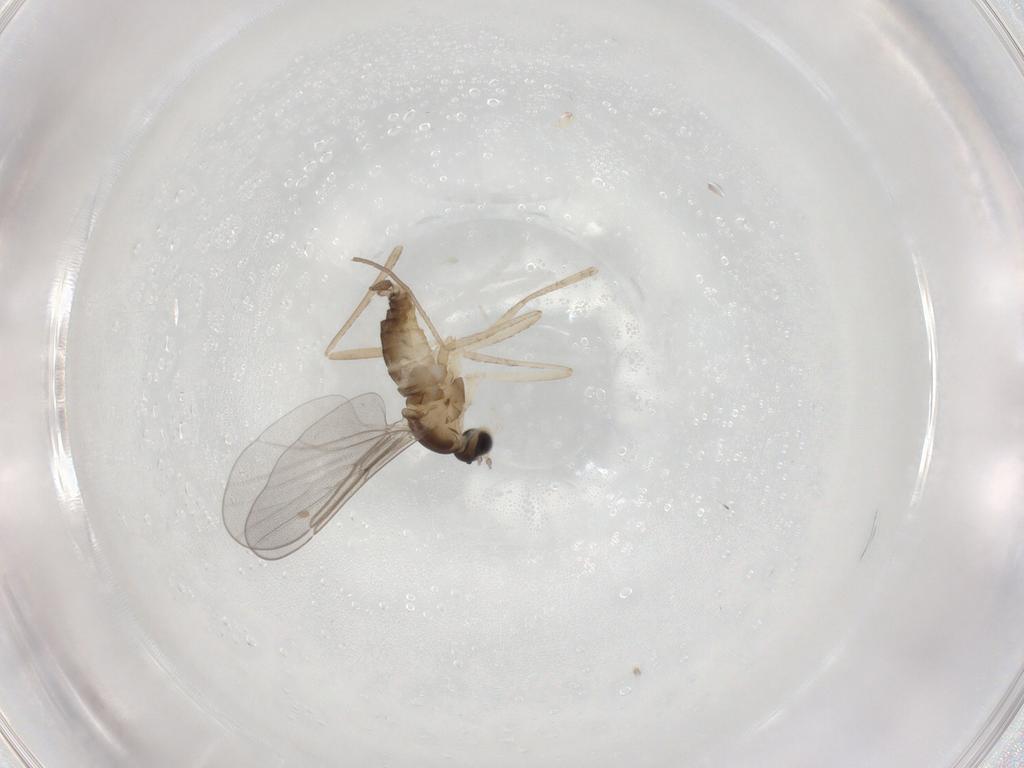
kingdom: Animalia
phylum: Arthropoda
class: Insecta
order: Diptera
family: Cecidomyiidae
